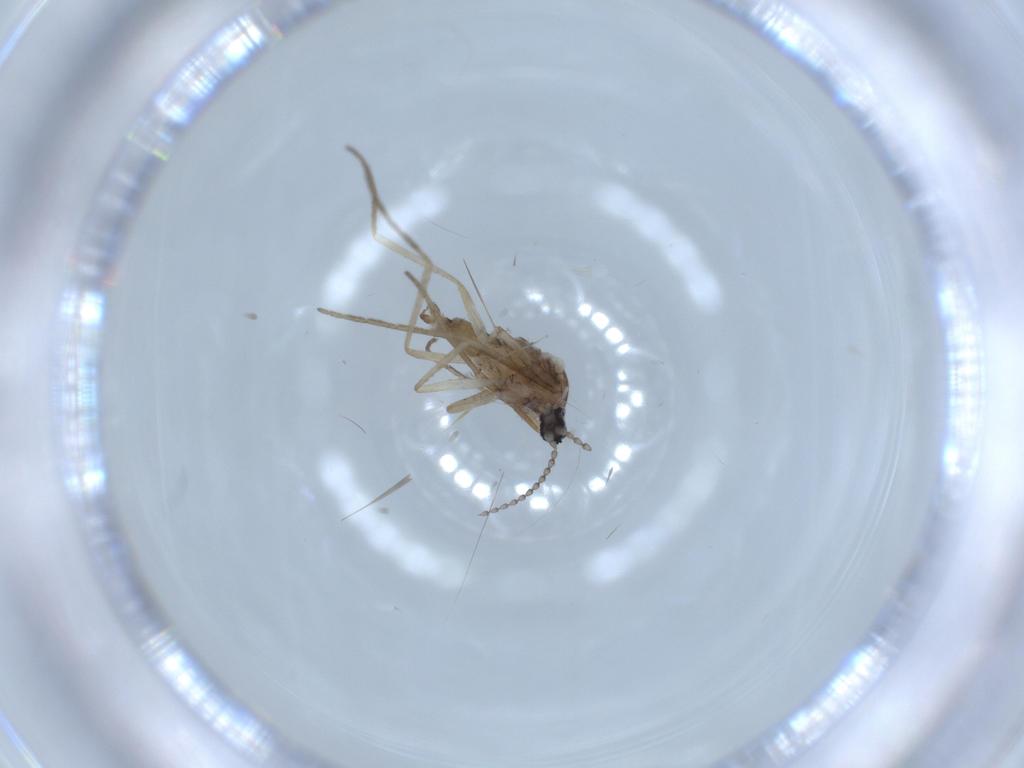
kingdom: Animalia
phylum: Arthropoda
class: Insecta
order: Diptera
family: Cecidomyiidae
